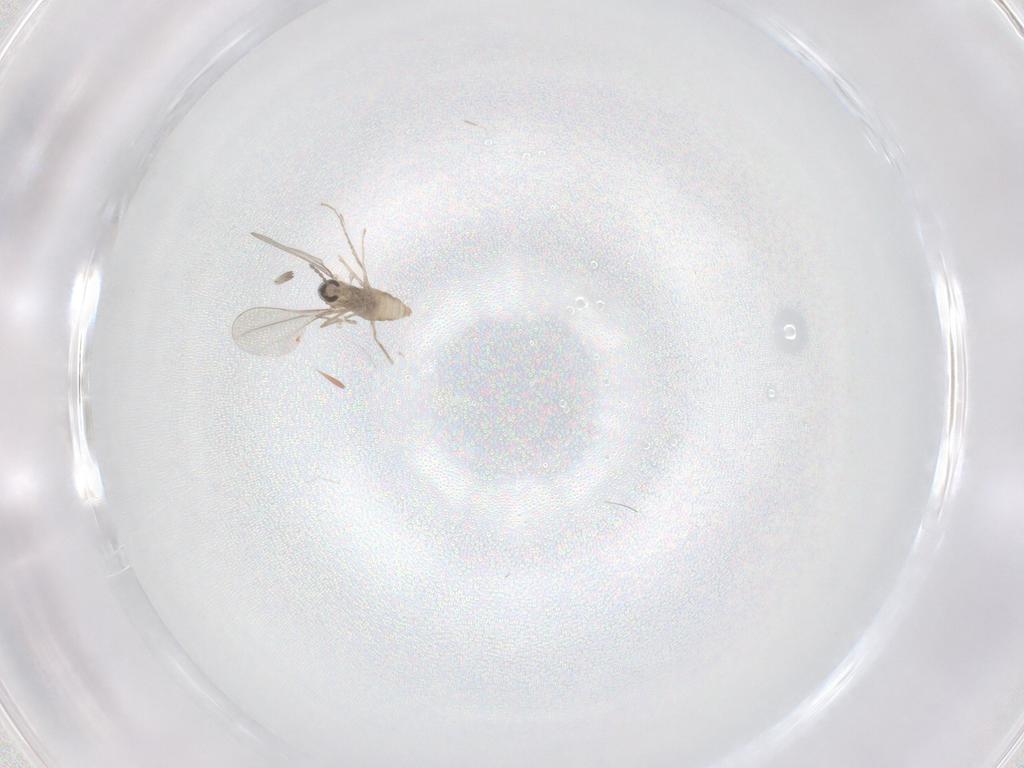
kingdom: Animalia
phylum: Arthropoda
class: Insecta
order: Diptera
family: Cecidomyiidae
